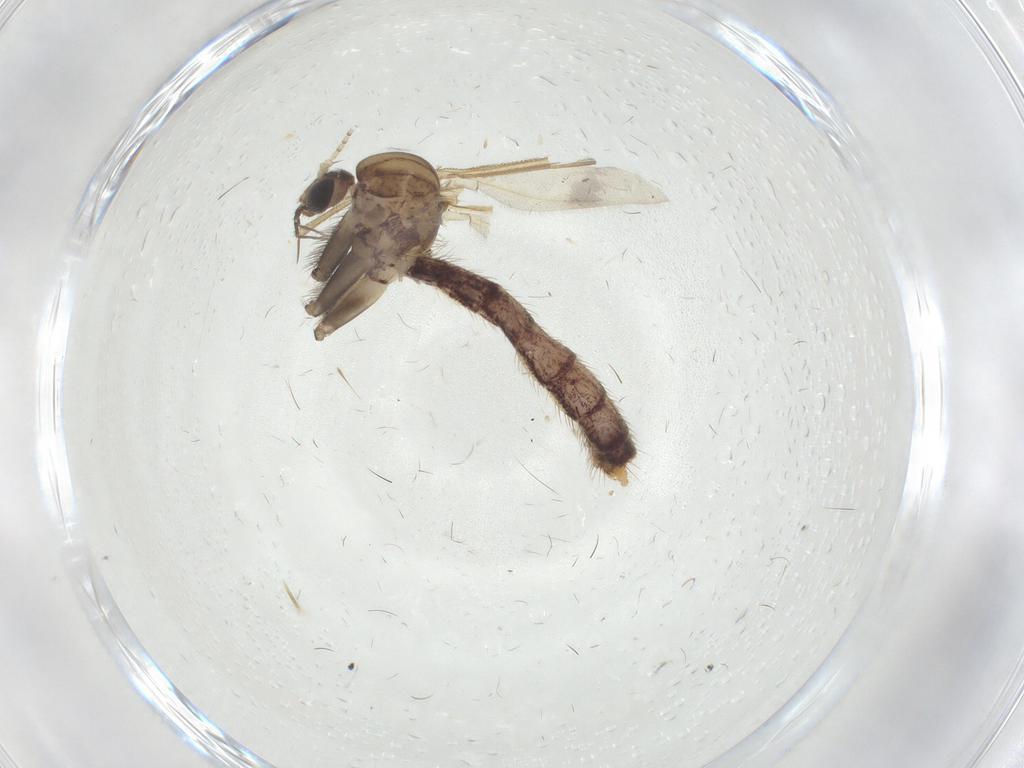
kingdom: Animalia
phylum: Arthropoda
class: Insecta
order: Diptera
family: Mycetophilidae
